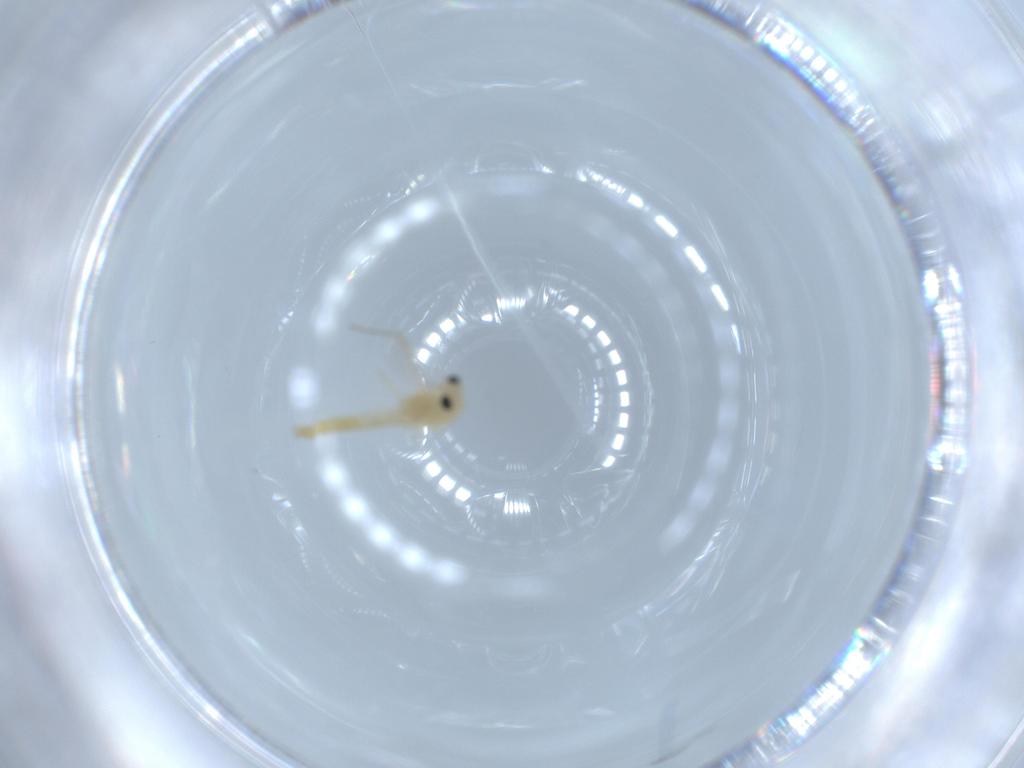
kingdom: Animalia
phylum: Arthropoda
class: Insecta
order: Diptera
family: Chironomidae
